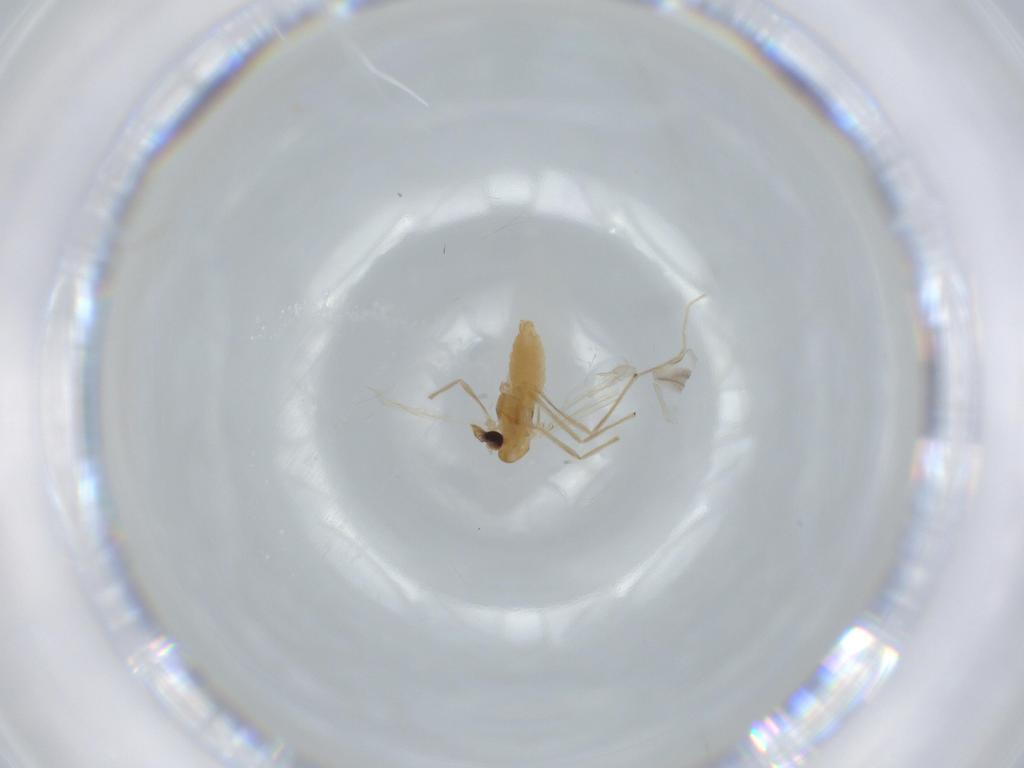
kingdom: Animalia
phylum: Arthropoda
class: Insecta
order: Diptera
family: Chironomidae
